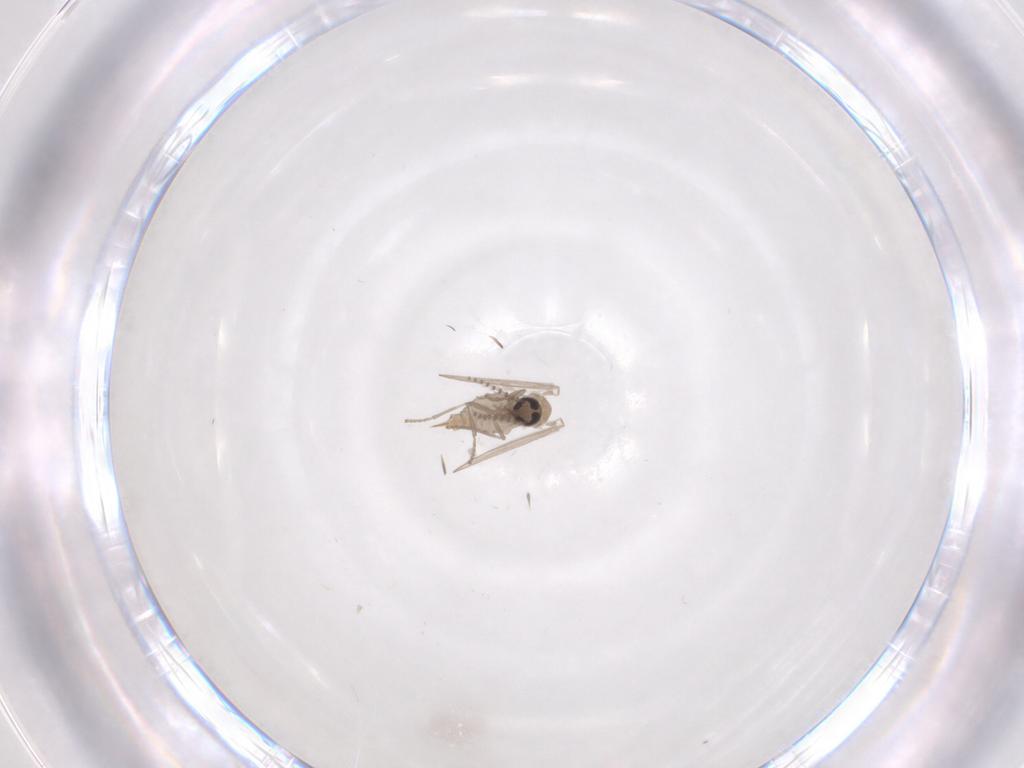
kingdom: Animalia
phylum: Arthropoda
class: Insecta
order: Diptera
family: Psychodidae
